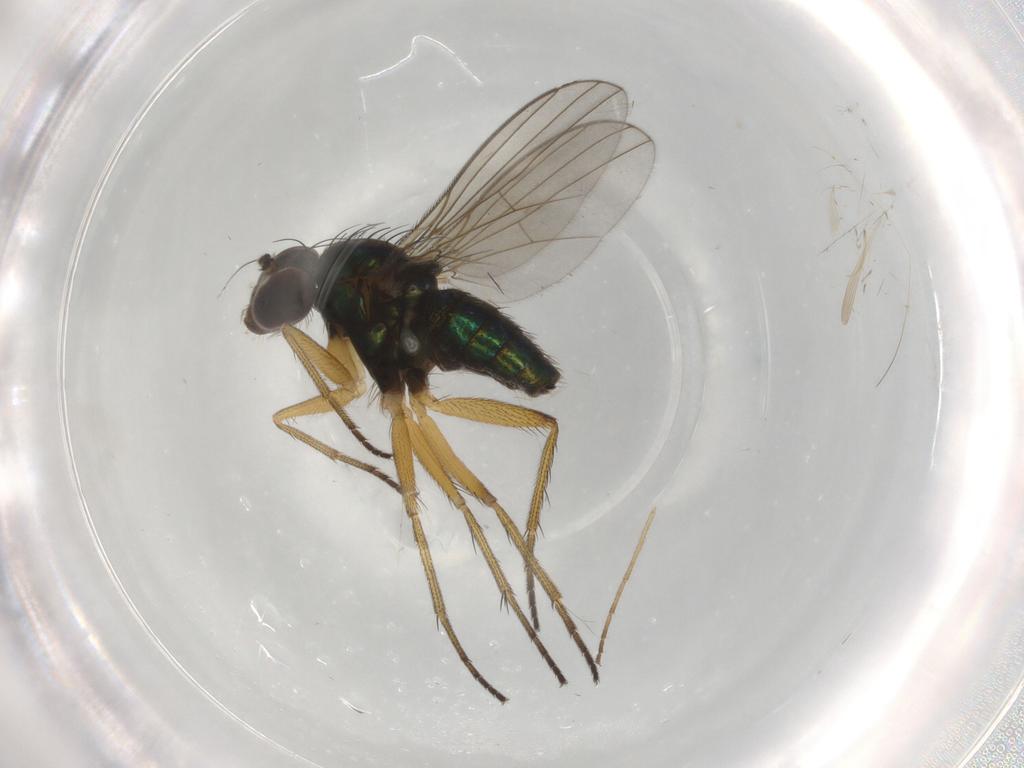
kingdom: Animalia
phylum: Arthropoda
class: Insecta
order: Diptera
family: Dolichopodidae
